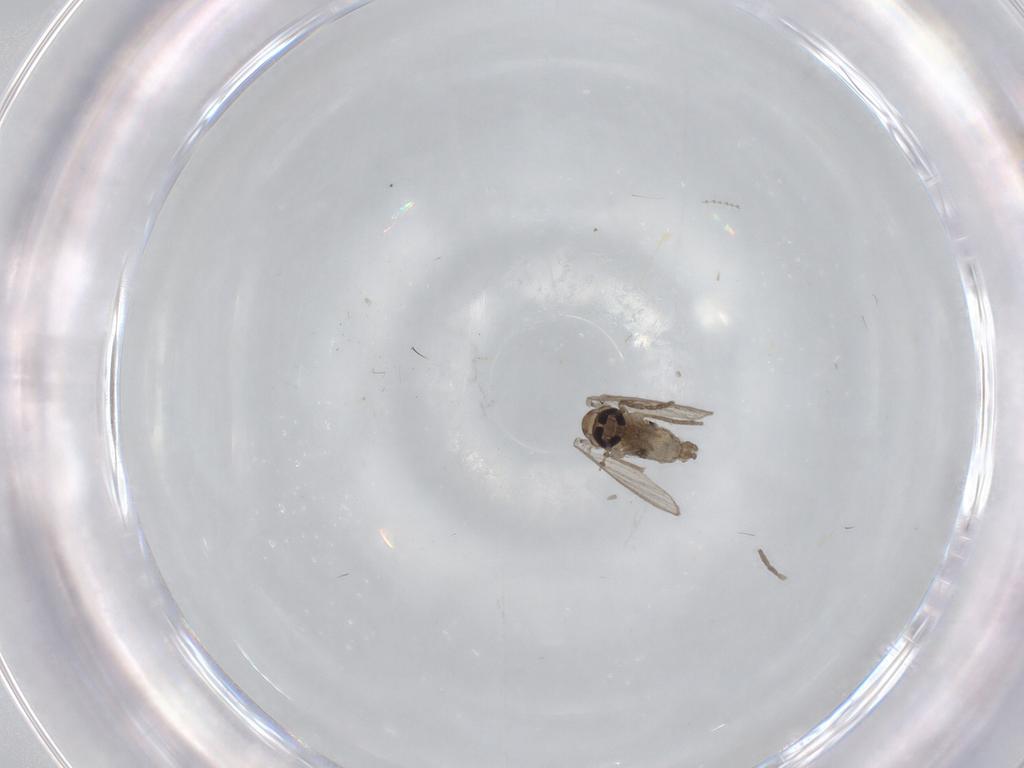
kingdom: Animalia
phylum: Arthropoda
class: Insecta
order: Diptera
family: Psychodidae
